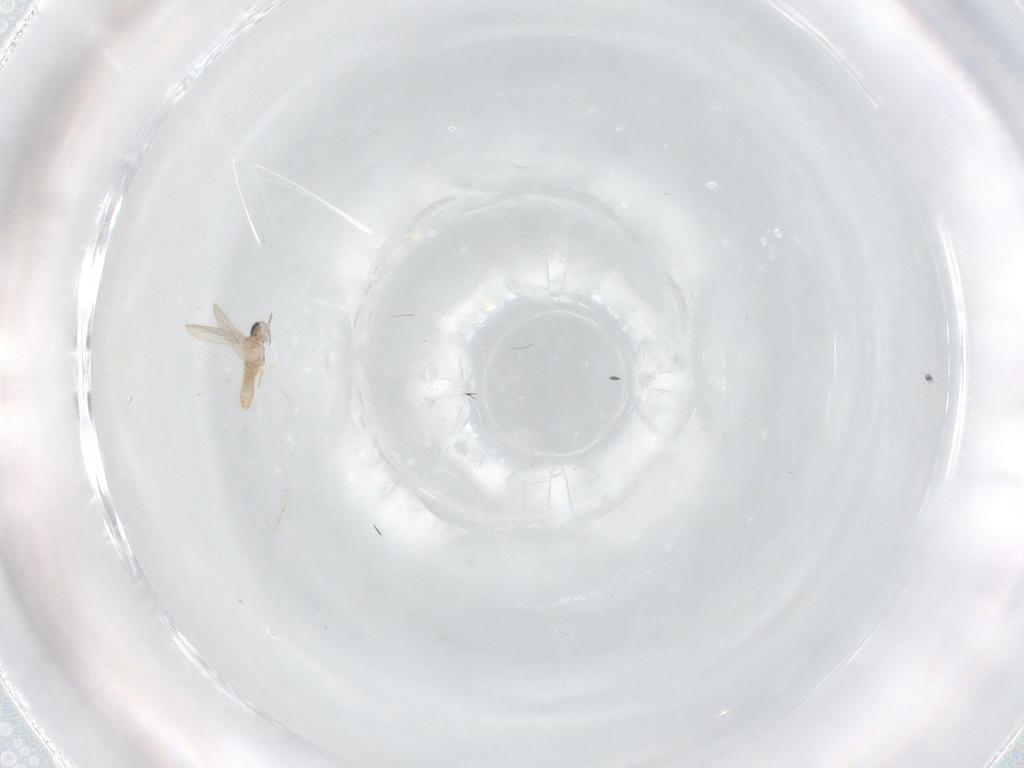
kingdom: Animalia
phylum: Arthropoda
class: Insecta
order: Diptera
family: Cecidomyiidae
